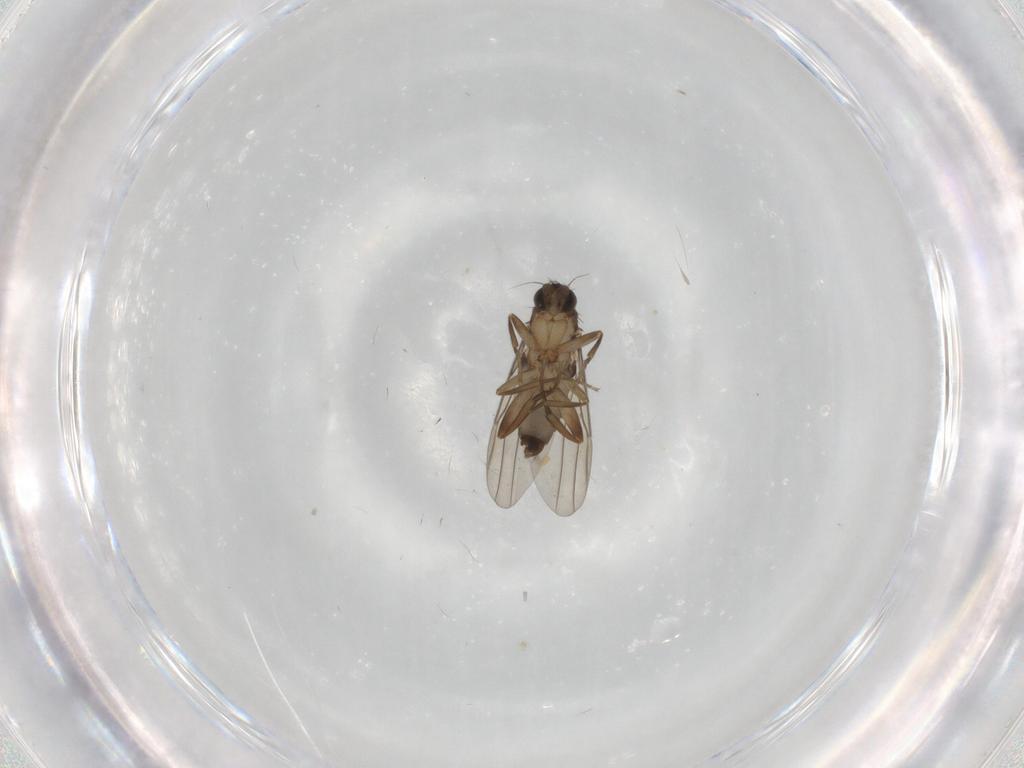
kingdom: Animalia
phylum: Arthropoda
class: Insecta
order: Diptera
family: Phoridae
